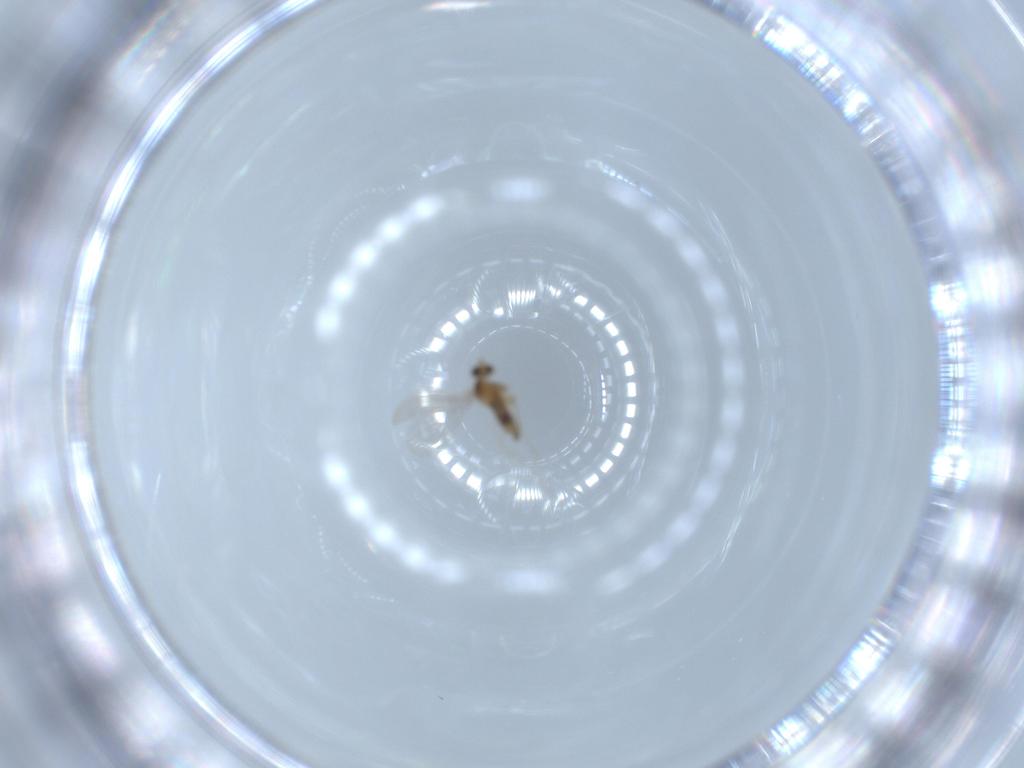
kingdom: Animalia
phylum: Arthropoda
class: Insecta
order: Diptera
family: Cecidomyiidae
